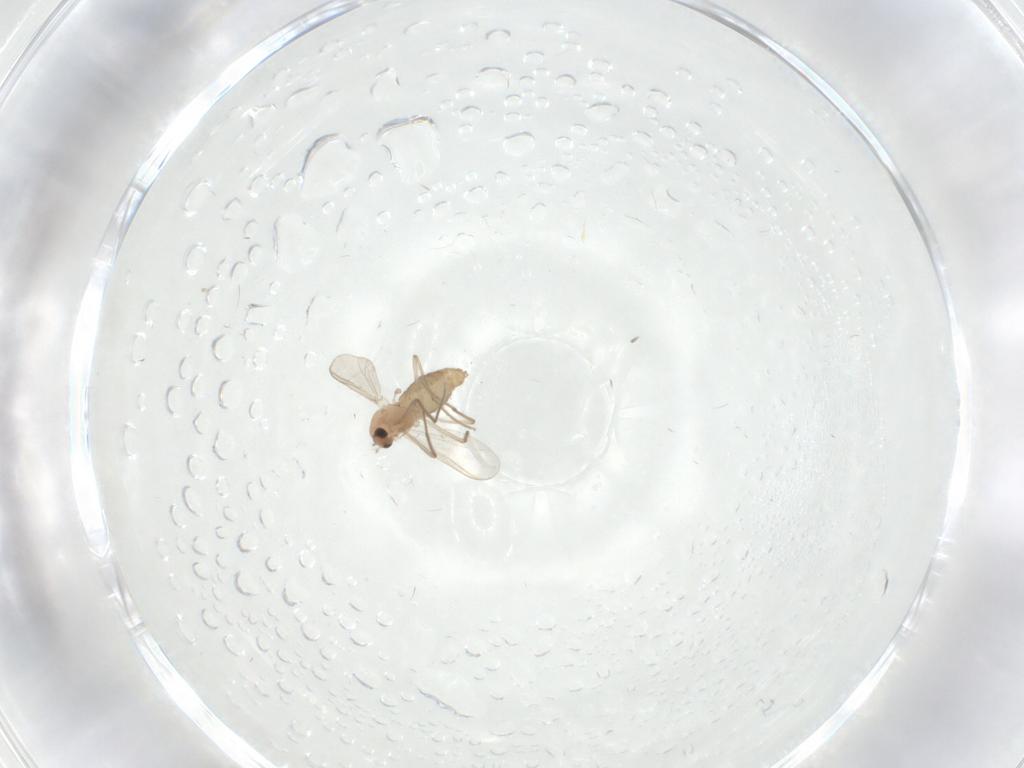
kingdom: Animalia
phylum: Arthropoda
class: Insecta
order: Diptera
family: Chironomidae
